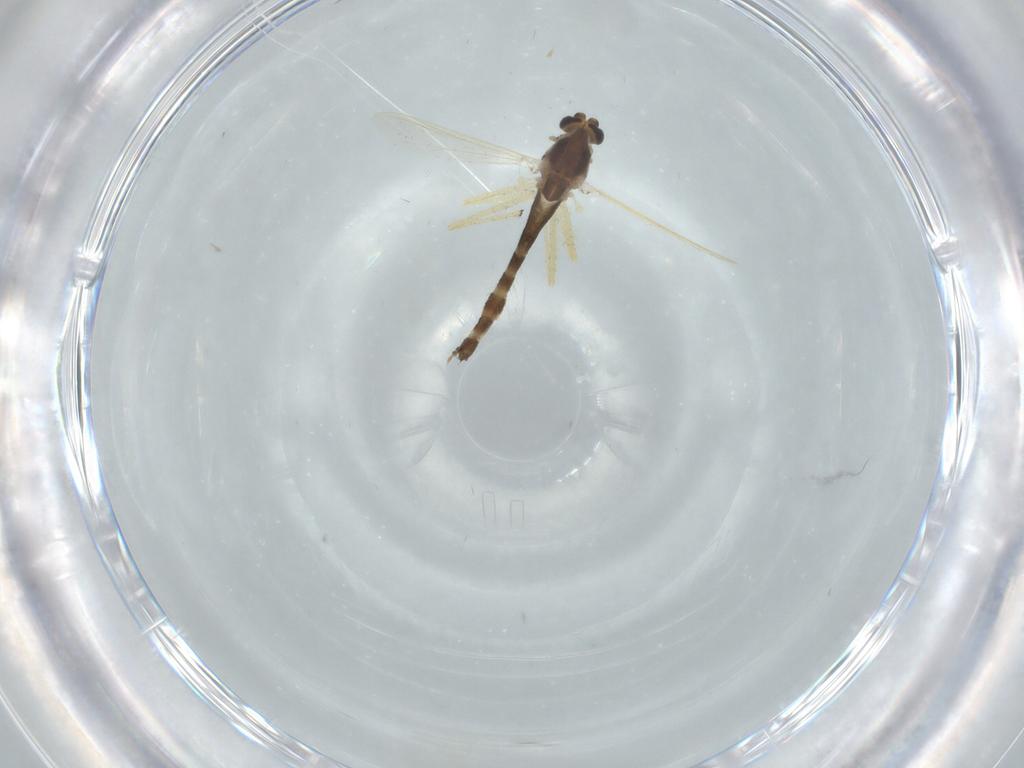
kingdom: Animalia
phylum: Arthropoda
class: Insecta
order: Diptera
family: Chironomidae
